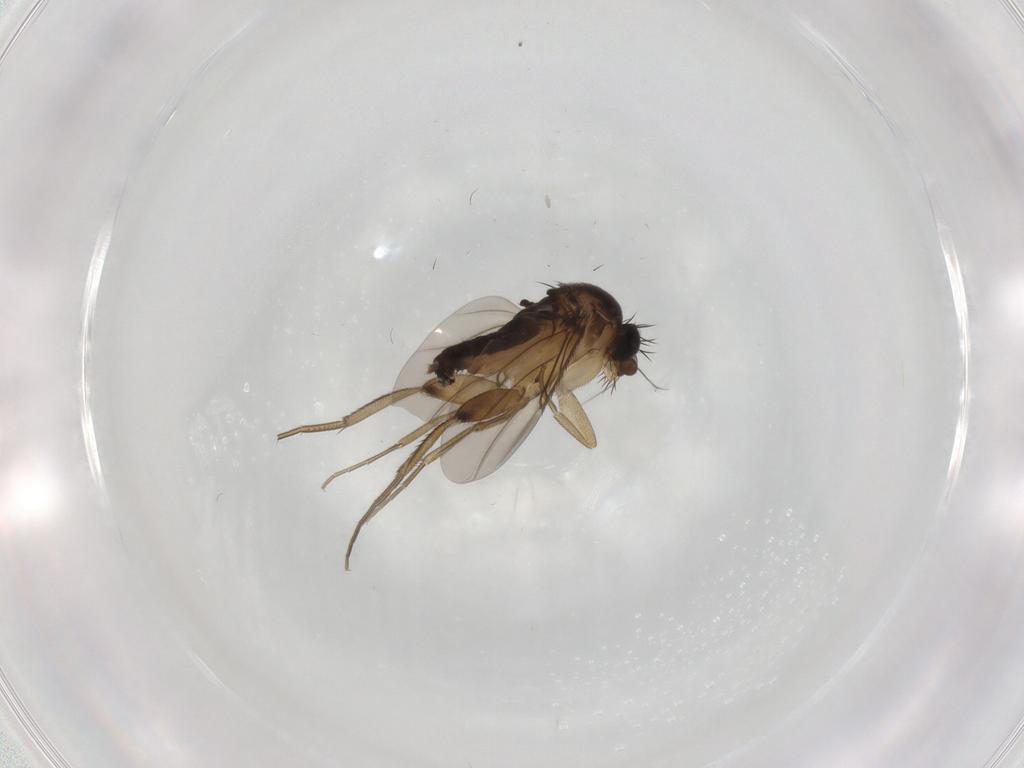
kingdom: Animalia
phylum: Arthropoda
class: Insecta
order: Diptera
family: Phoridae
